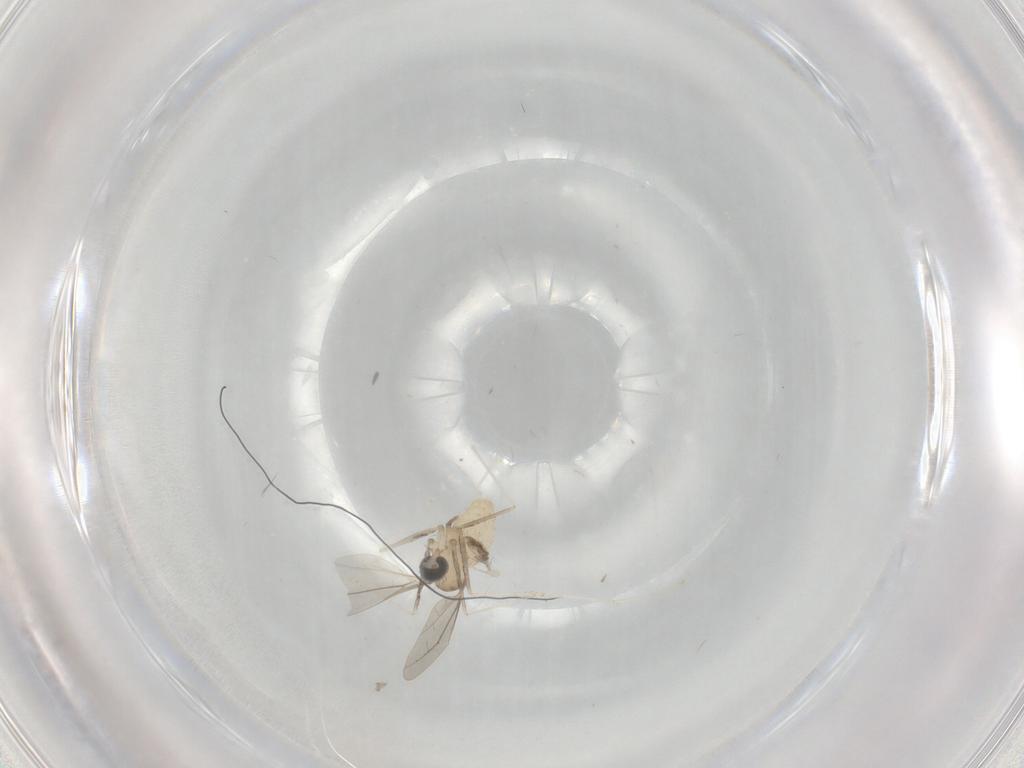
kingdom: Animalia
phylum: Arthropoda
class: Insecta
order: Diptera
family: Cecidomyiidae
